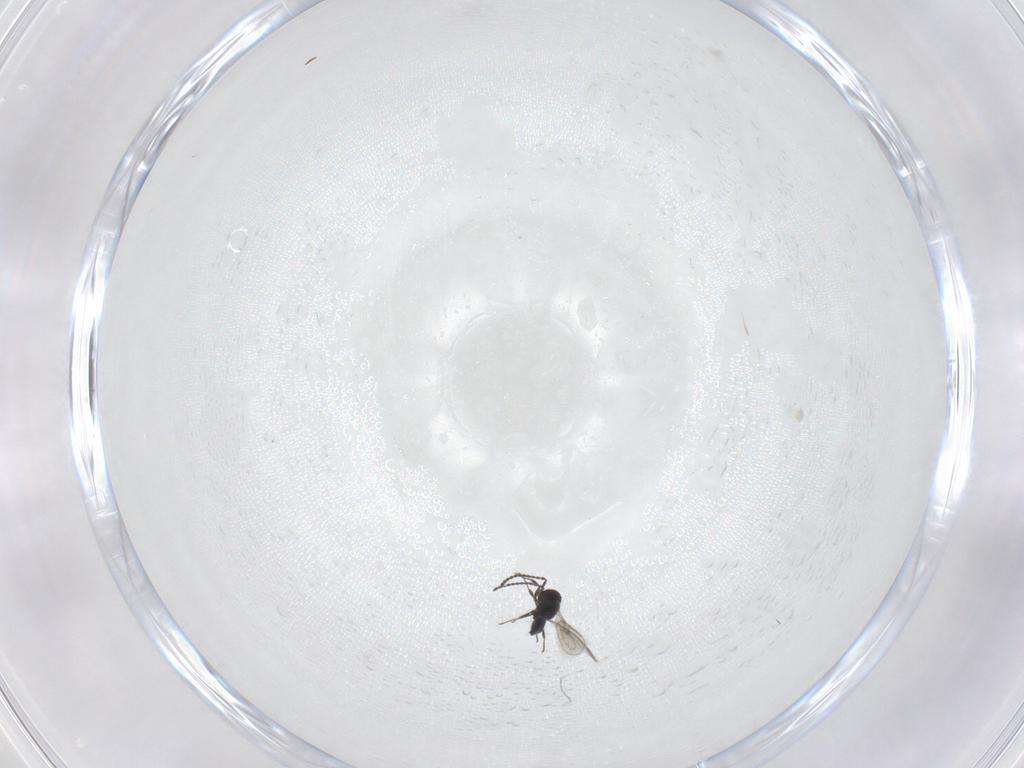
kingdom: Animalia
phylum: Arthropoda
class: Insecta
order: Hymenoptera
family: Scelionidae
